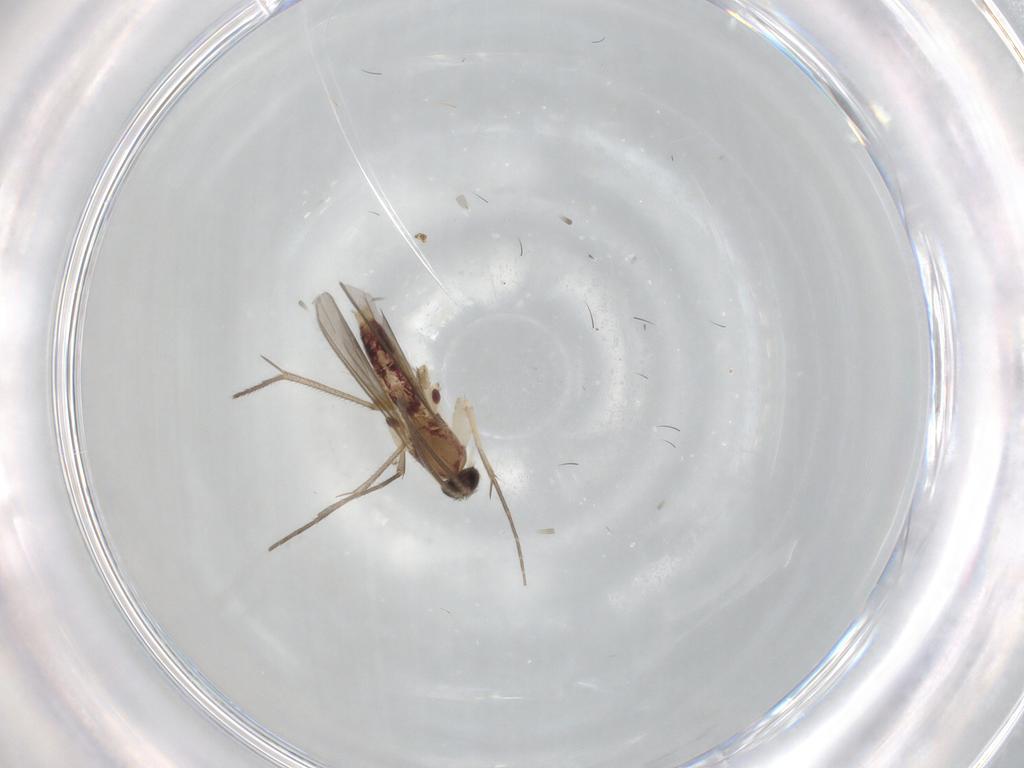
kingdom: Animalia
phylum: Arthropoda
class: Insecta
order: Diptera
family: Mycetophilidae
